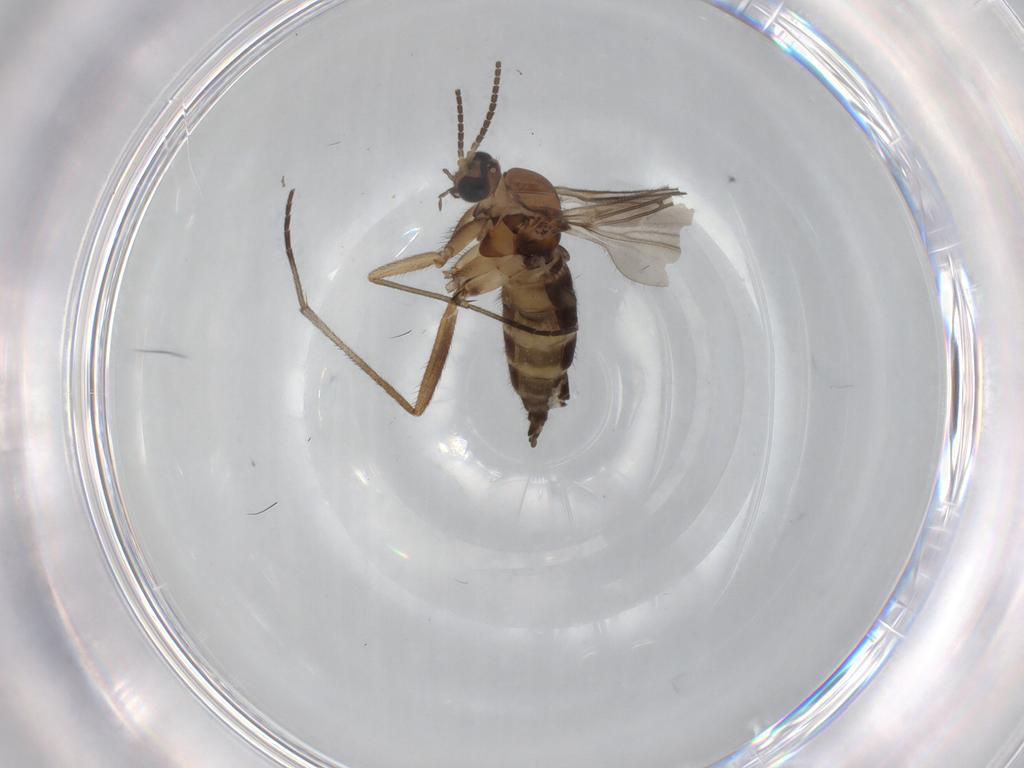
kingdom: Animalia
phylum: Arthropoda
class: Insecta
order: Diptera
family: Sciaridae
